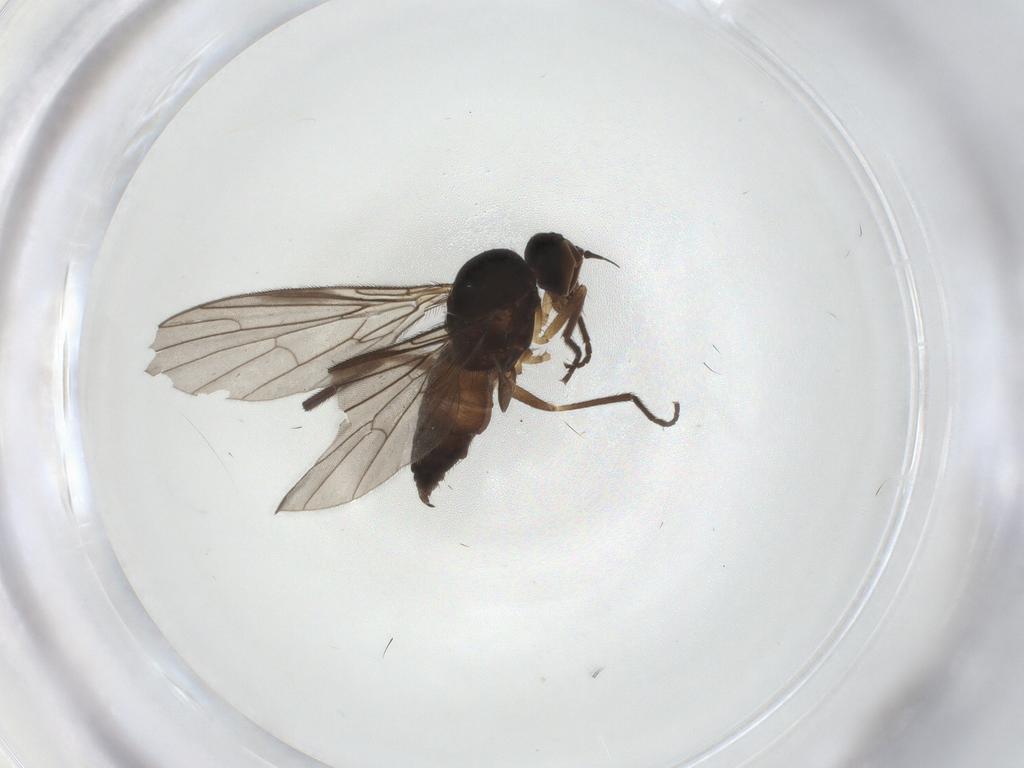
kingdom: Animalia
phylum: Arthropoda
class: Insecta
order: Diptera
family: Empididae
